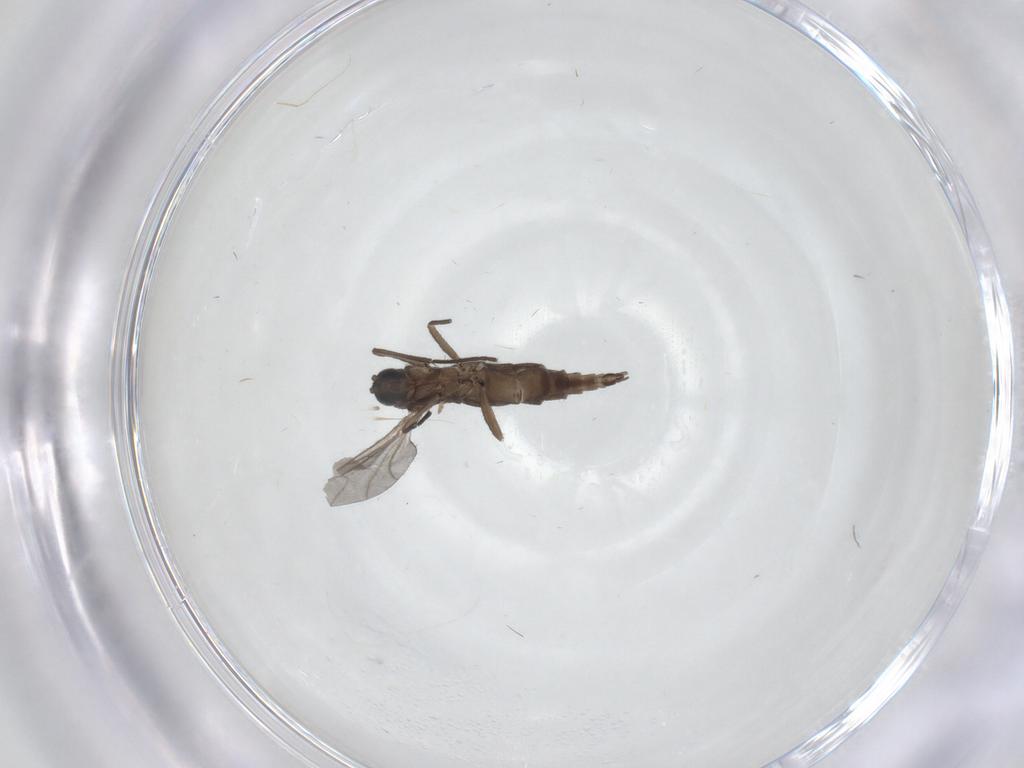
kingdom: Animalia
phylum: Arthropoda
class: Insecta
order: Diptera
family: Sciaridae
